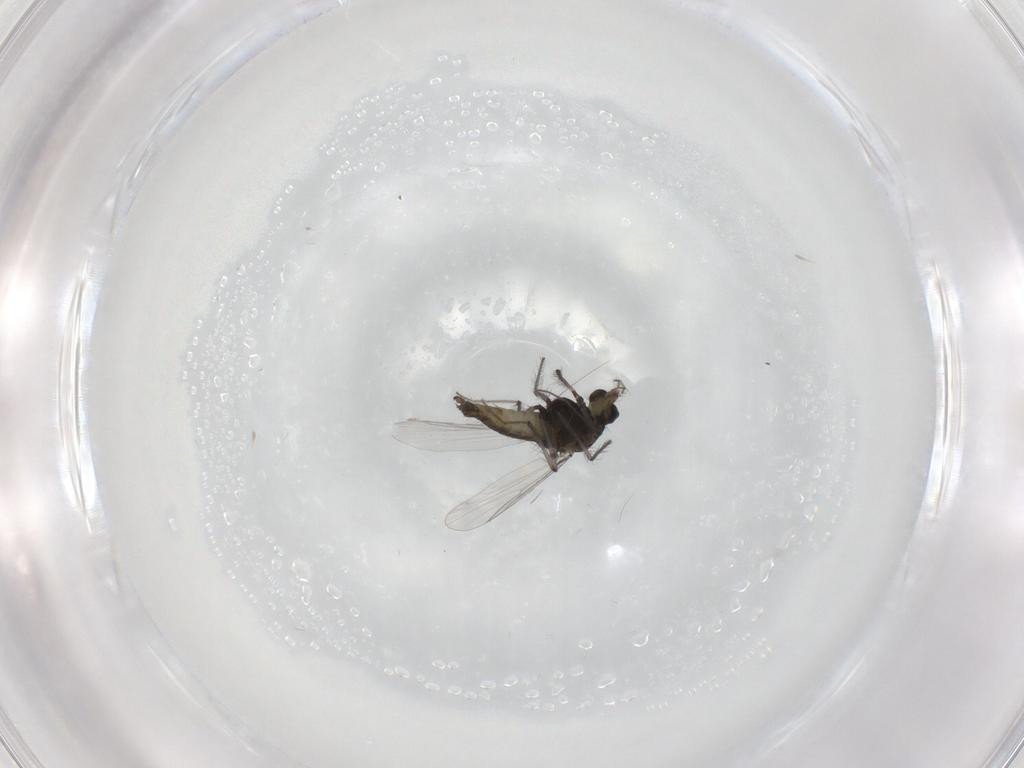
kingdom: Animalia
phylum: Arthropoda
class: Insecta
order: Diptera
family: Chironomidae
